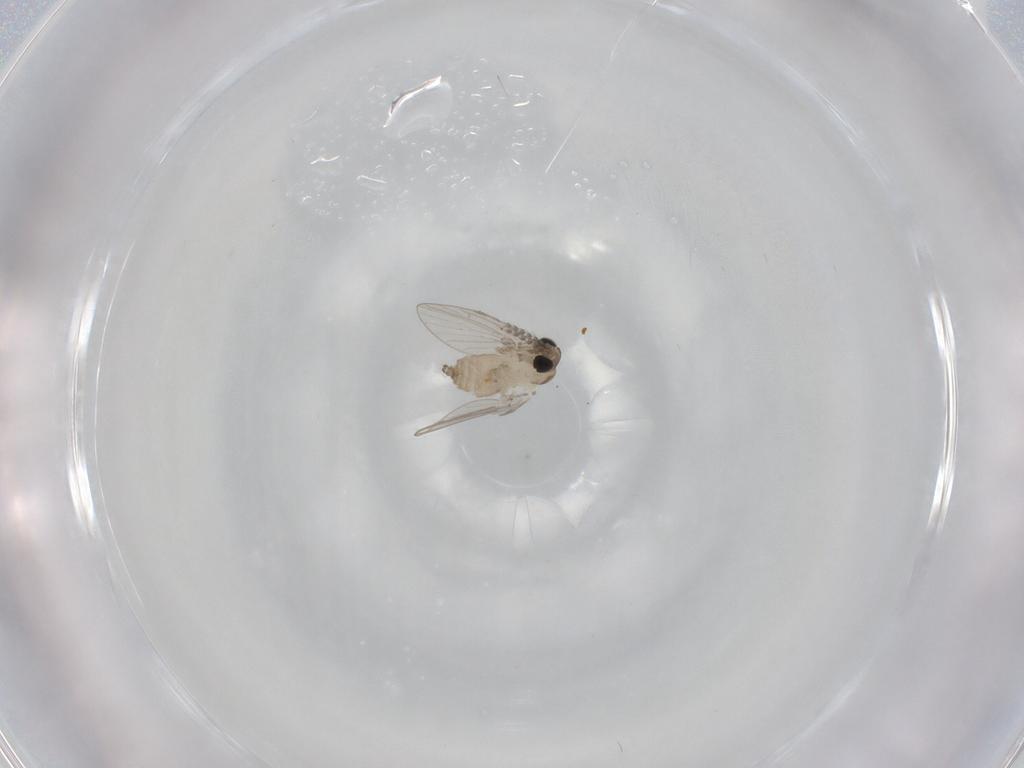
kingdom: Animalia
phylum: Arthropoda
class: Insecta
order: Diptera
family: Psychodidae
